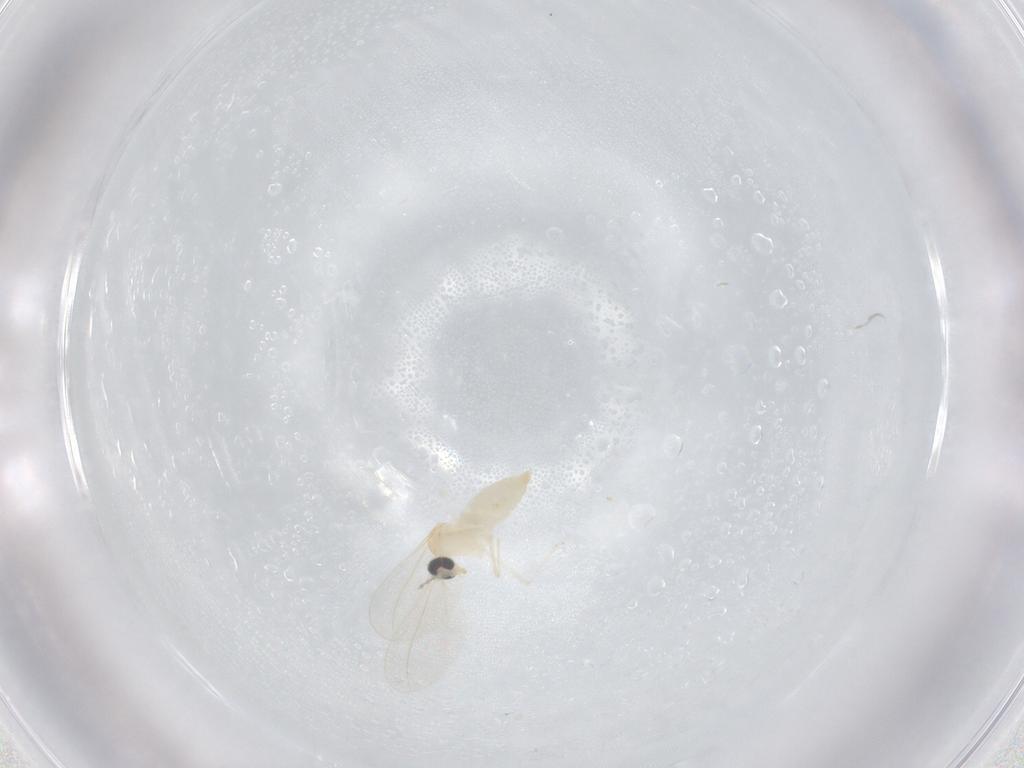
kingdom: Animalia
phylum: Arthropoda
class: Insecta
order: Diptera
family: Cecidomyiidae
